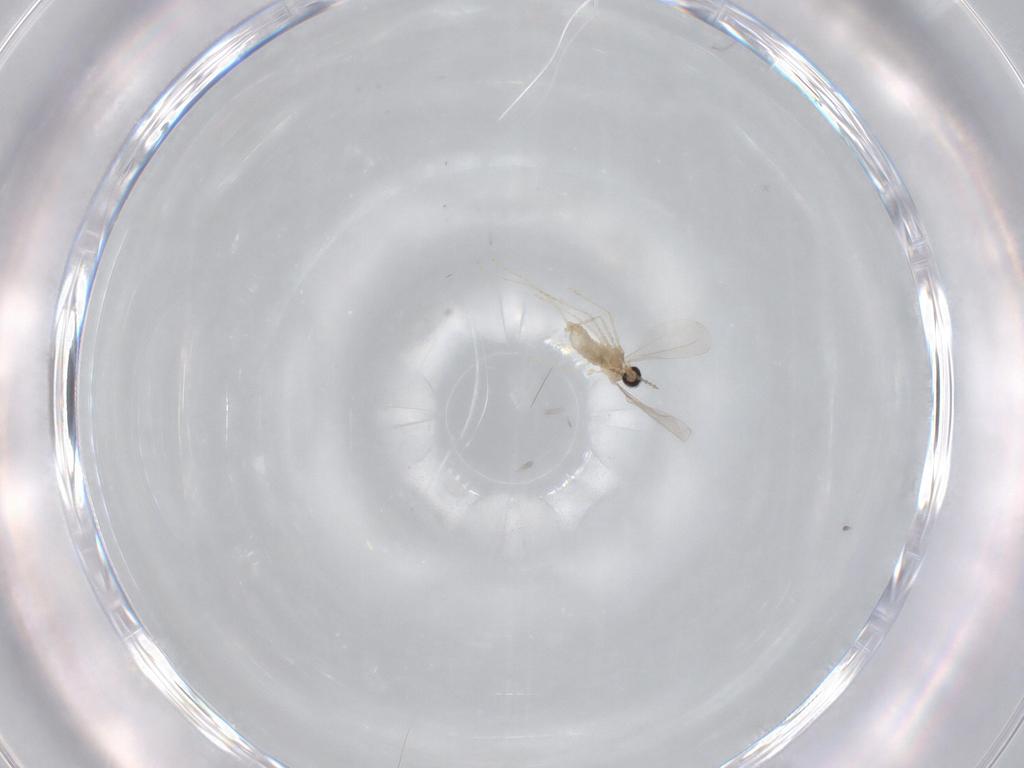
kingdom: Animalia
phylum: Arthropoda
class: Insecta
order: Diptera
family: Cecidomyiidae
